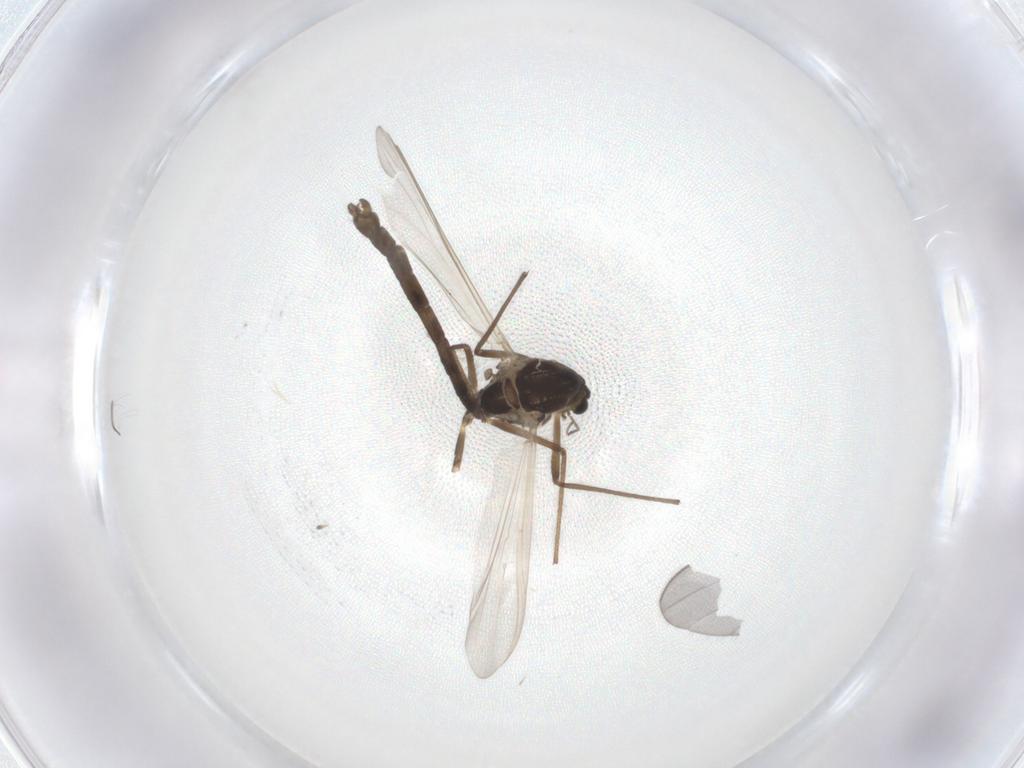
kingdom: Animalia
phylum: Arthropoda
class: Insecta
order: Diptera
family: Chironomidae
